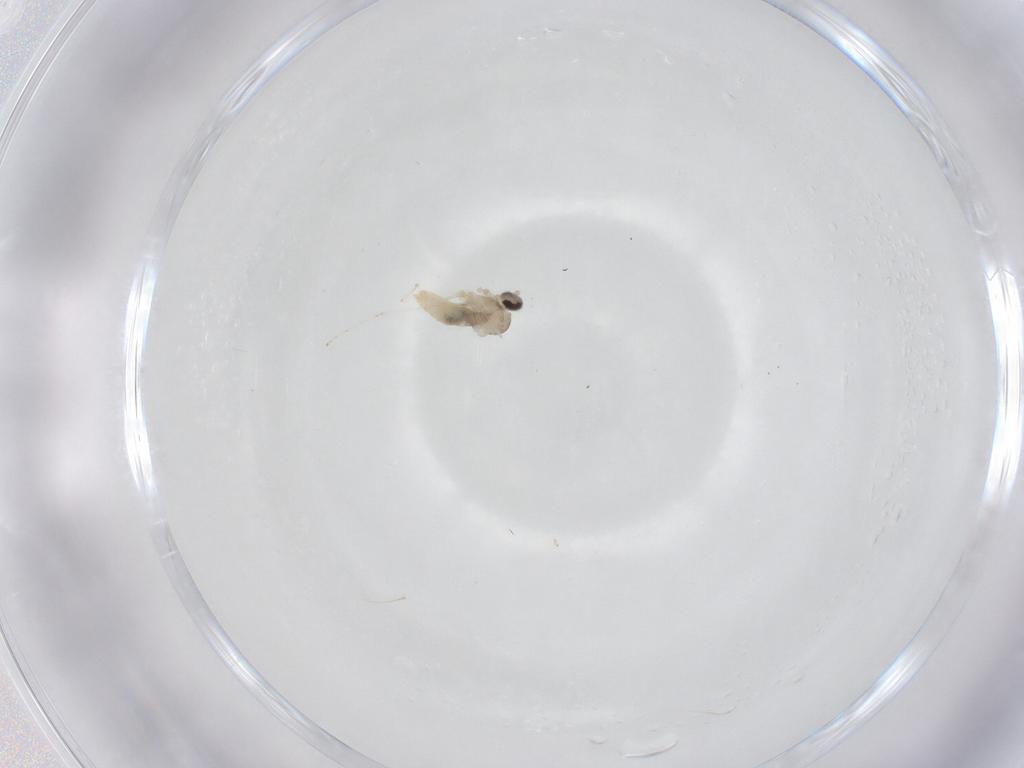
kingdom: Animalia
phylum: Arthropoda
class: Insecta
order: Diptera
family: Cecidomyiidae
